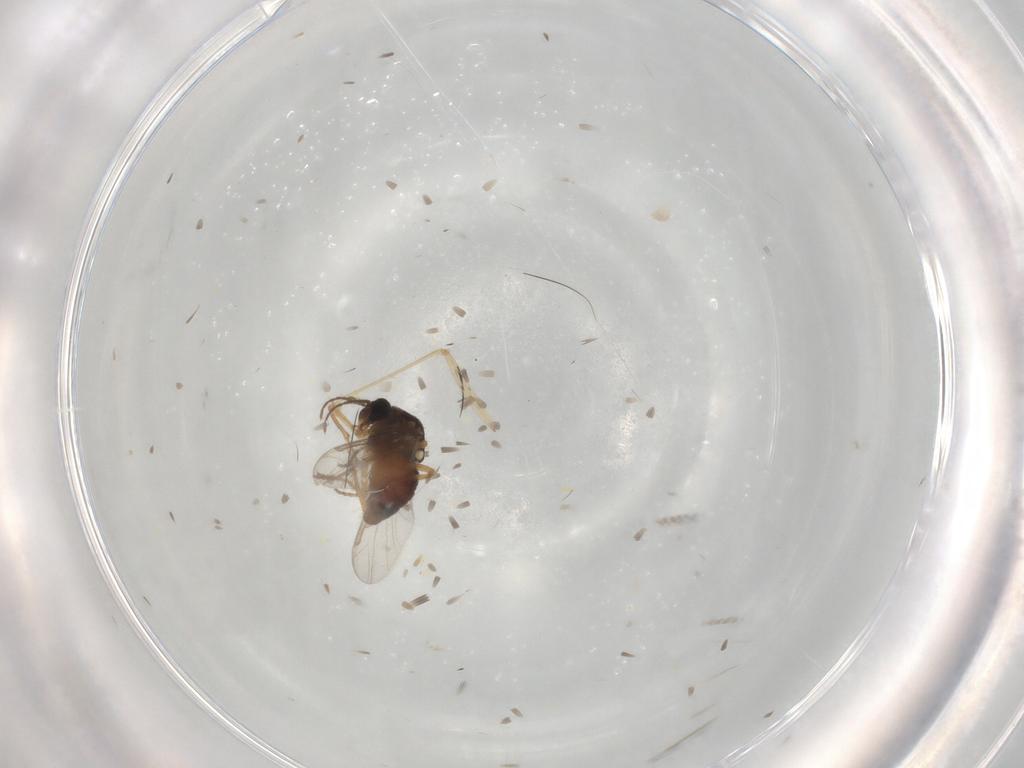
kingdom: Animalia
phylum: Arthropoda
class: Insecta
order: Diptera
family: Ceratopogonidae
